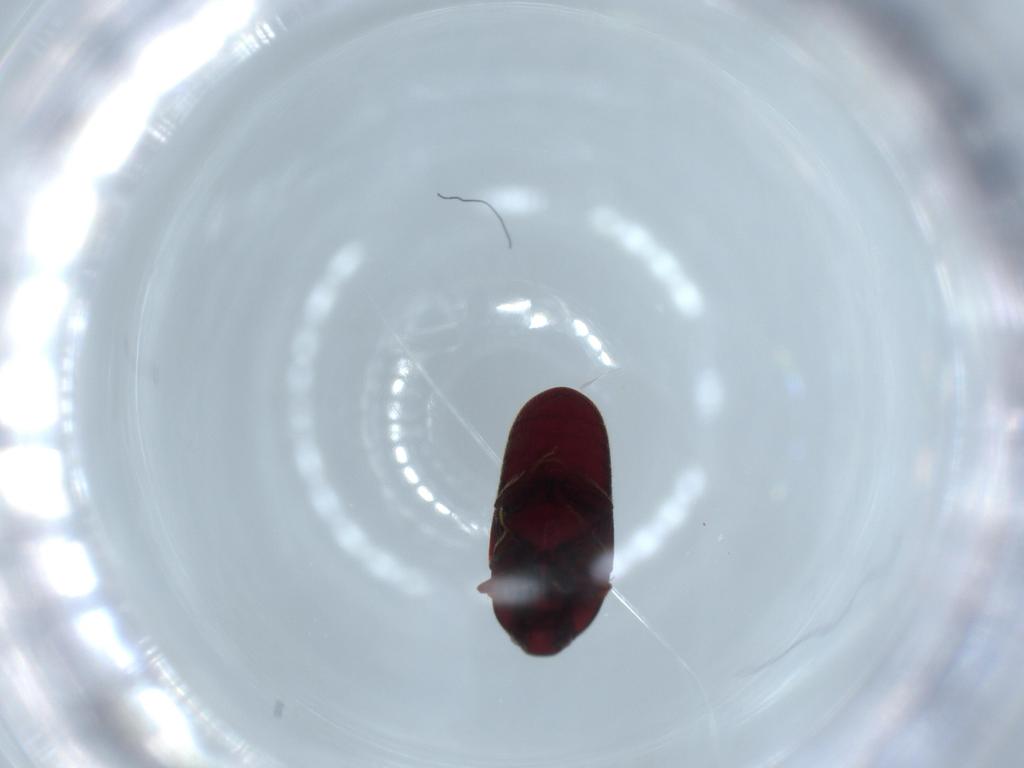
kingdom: Animalia
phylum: Arthropoda
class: Insecta
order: Coleoptera
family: Throscidae
